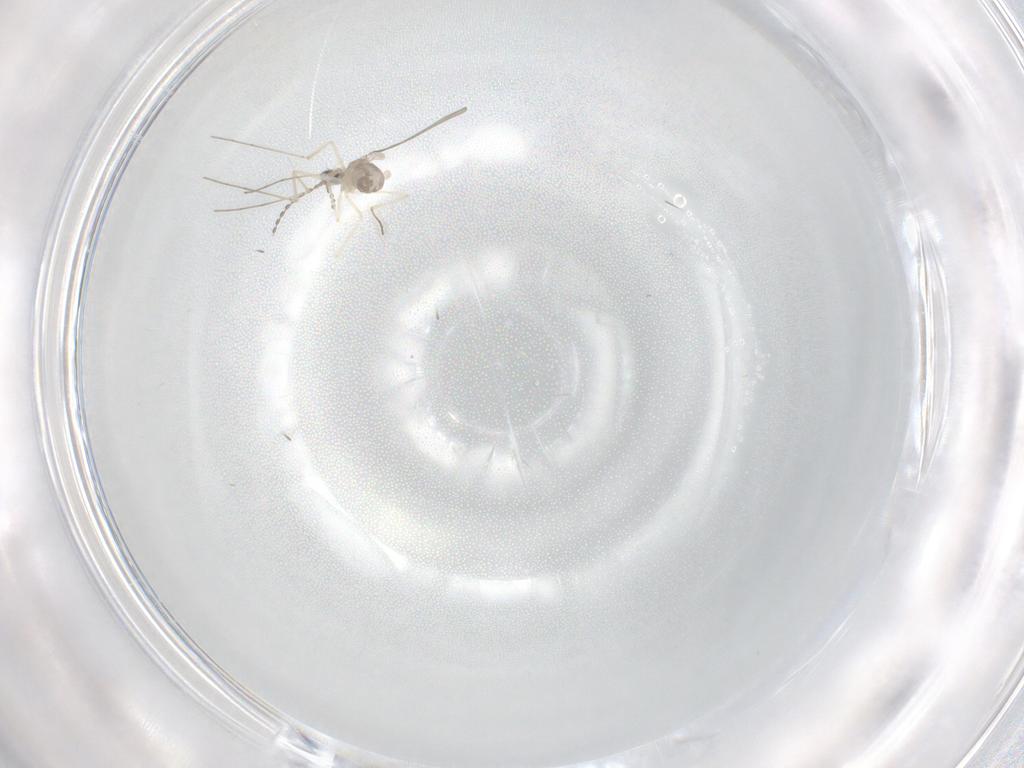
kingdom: Animalia
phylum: Arthropoda
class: Insecta
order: Diptera
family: Cecidomyiidae
